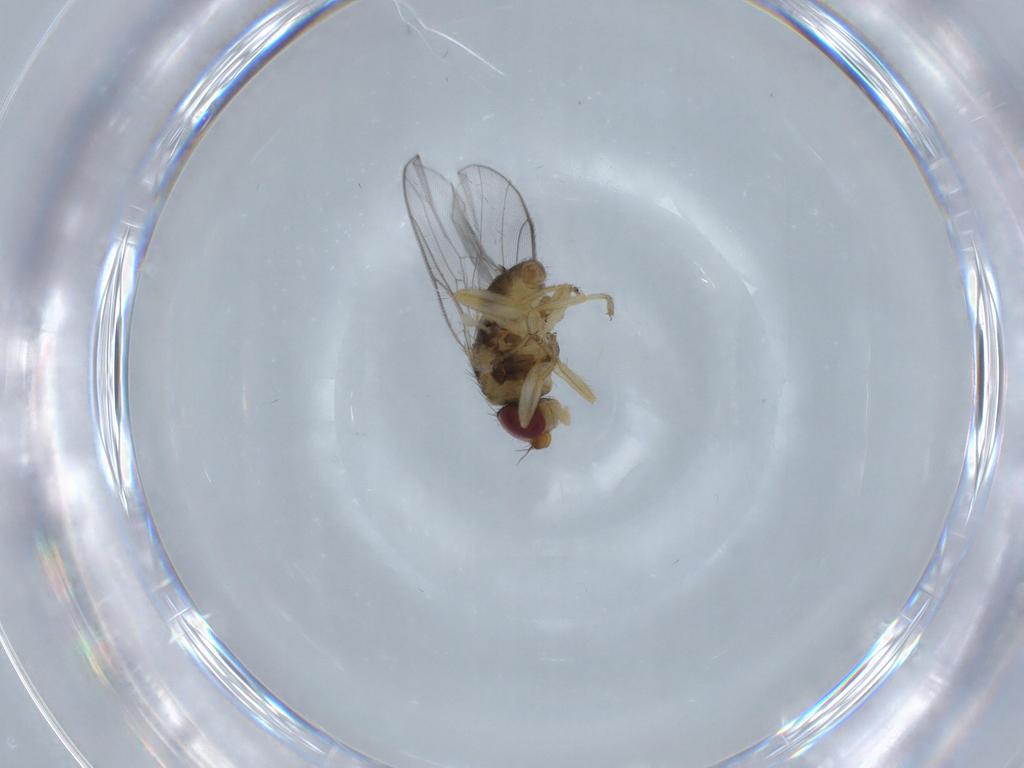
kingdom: Animalia
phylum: Arthropoda
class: Insecta
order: Diptera
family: Chloropidae
